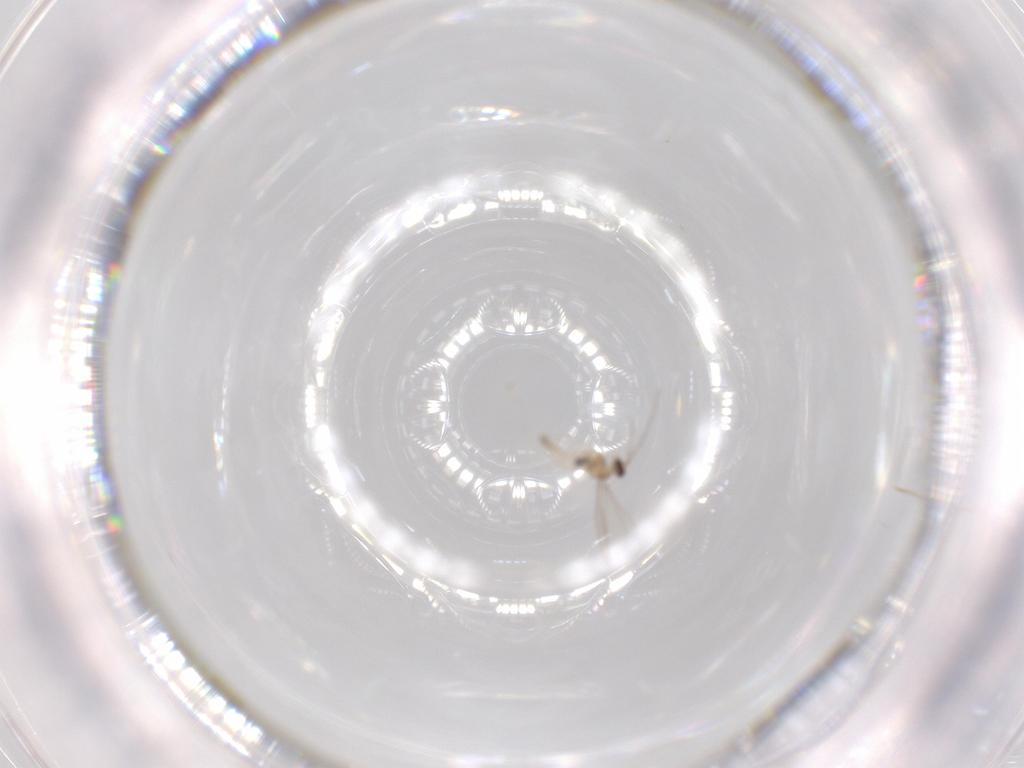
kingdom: Animalia
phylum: Arthropoda
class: Insecta
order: Diptera
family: Cecidomyiidae
